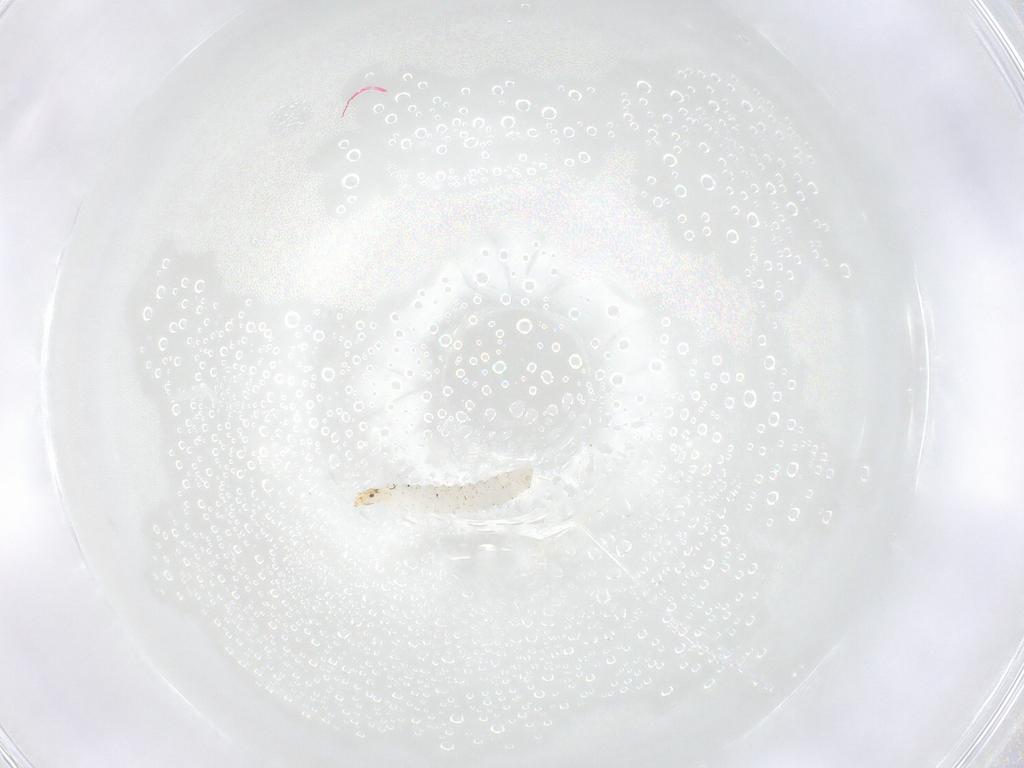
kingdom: Animalia
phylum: Arthropoda
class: Insecta
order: Diptera
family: Stratiomyidae
